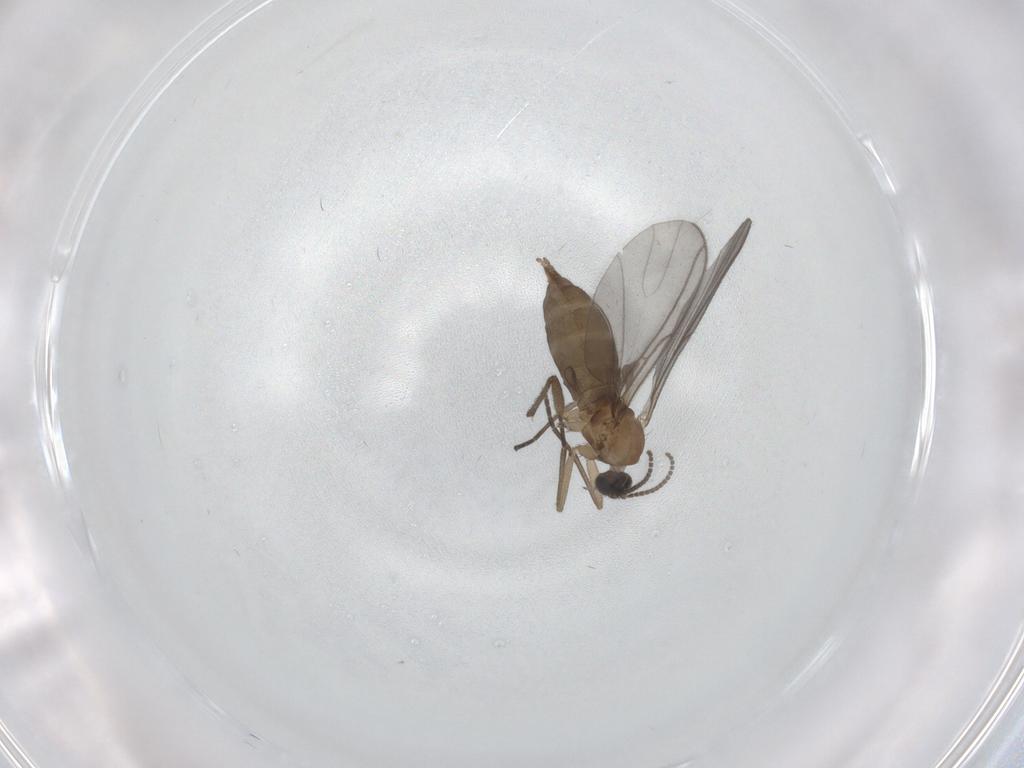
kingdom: Animalia
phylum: Arthropoda
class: Insecta
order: Diptera
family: Sciaridae
